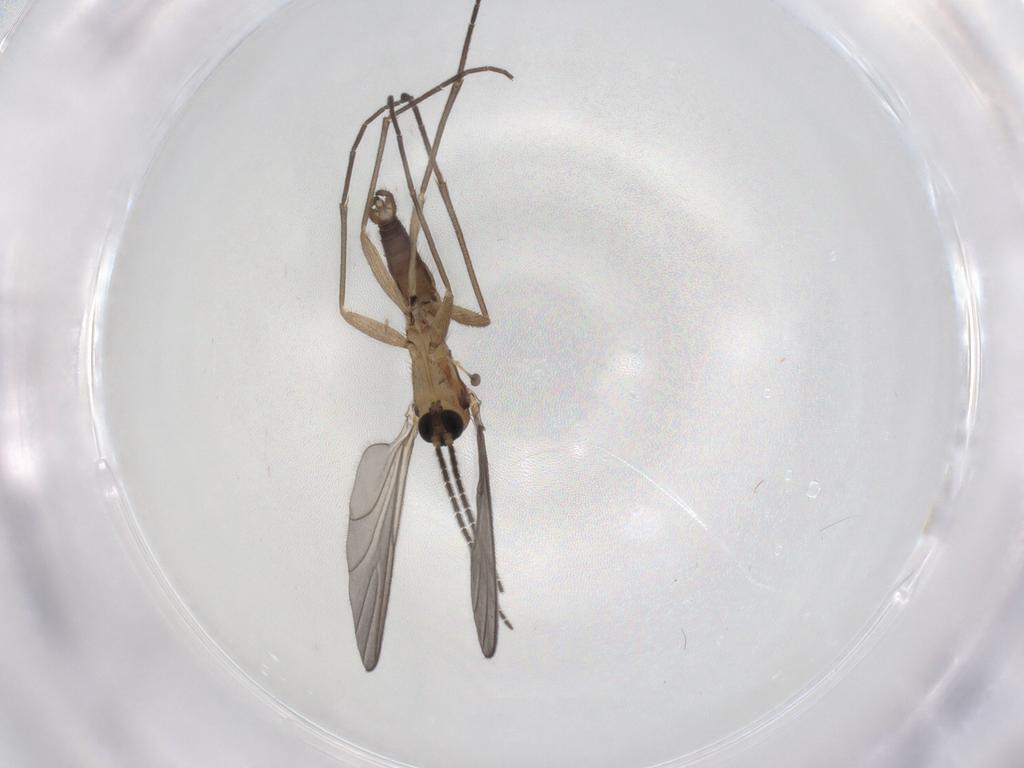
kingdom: Animalia
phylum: Arthropoda
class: Insecta
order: Diptera
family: Sciaridae
